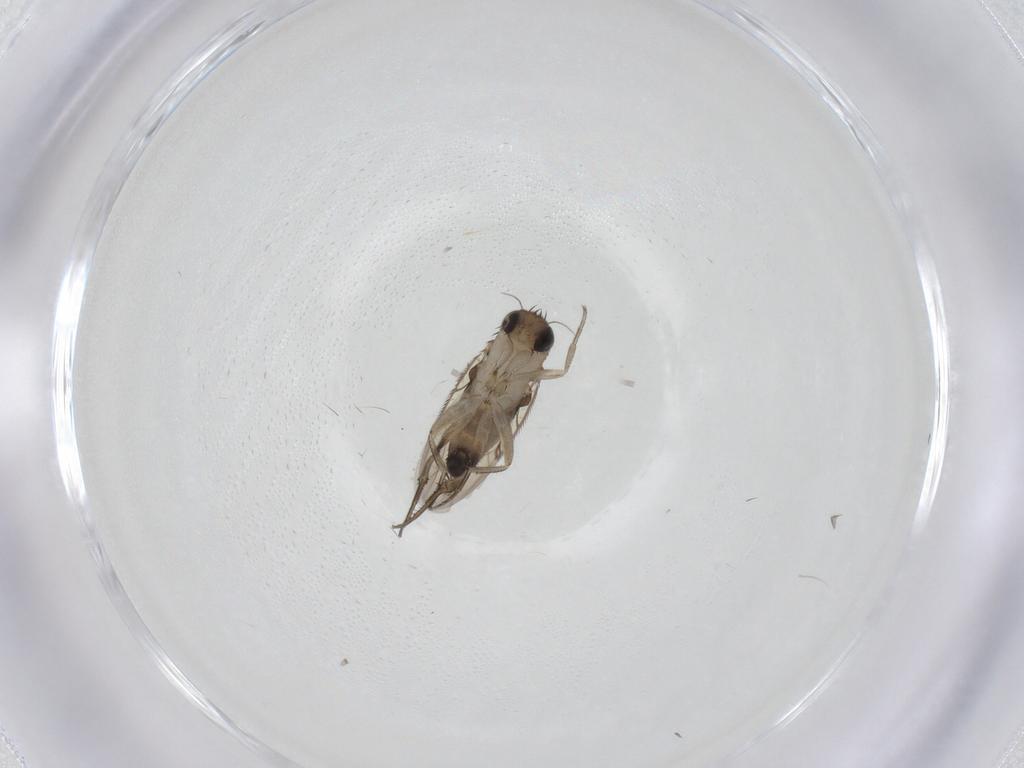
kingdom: Animalia
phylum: Arthropoda
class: Insecta
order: Diptera
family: Phoridae
